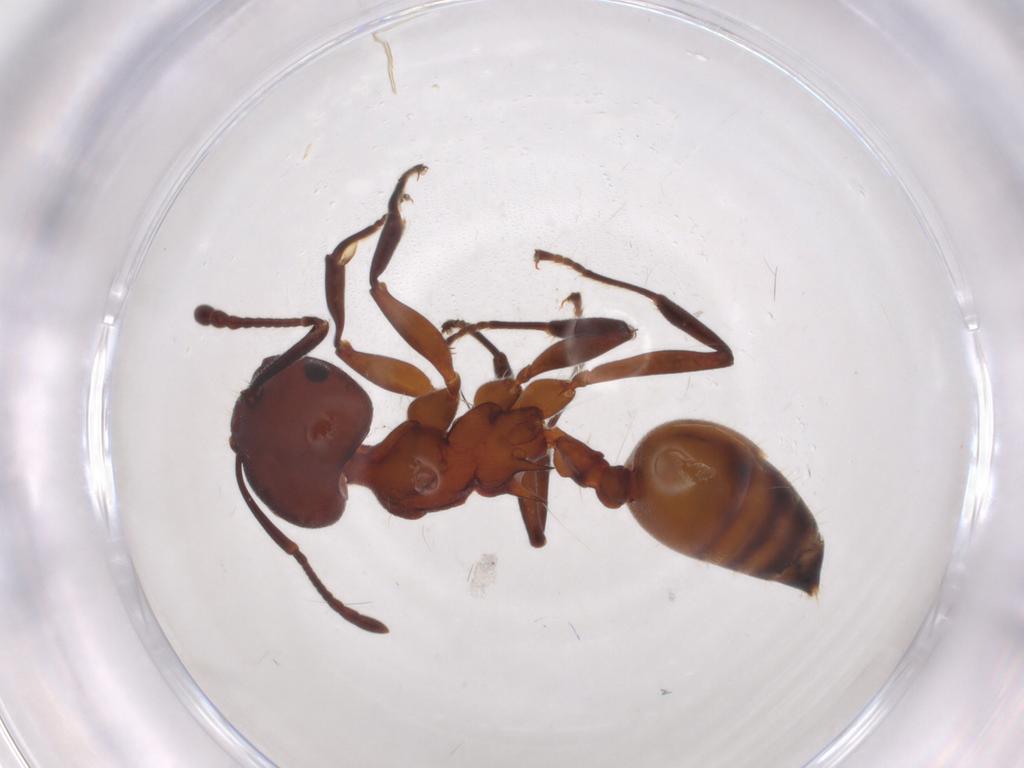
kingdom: Animalia
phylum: Arthropoda
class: Insecta
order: Hymenoptera
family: Formicidae
